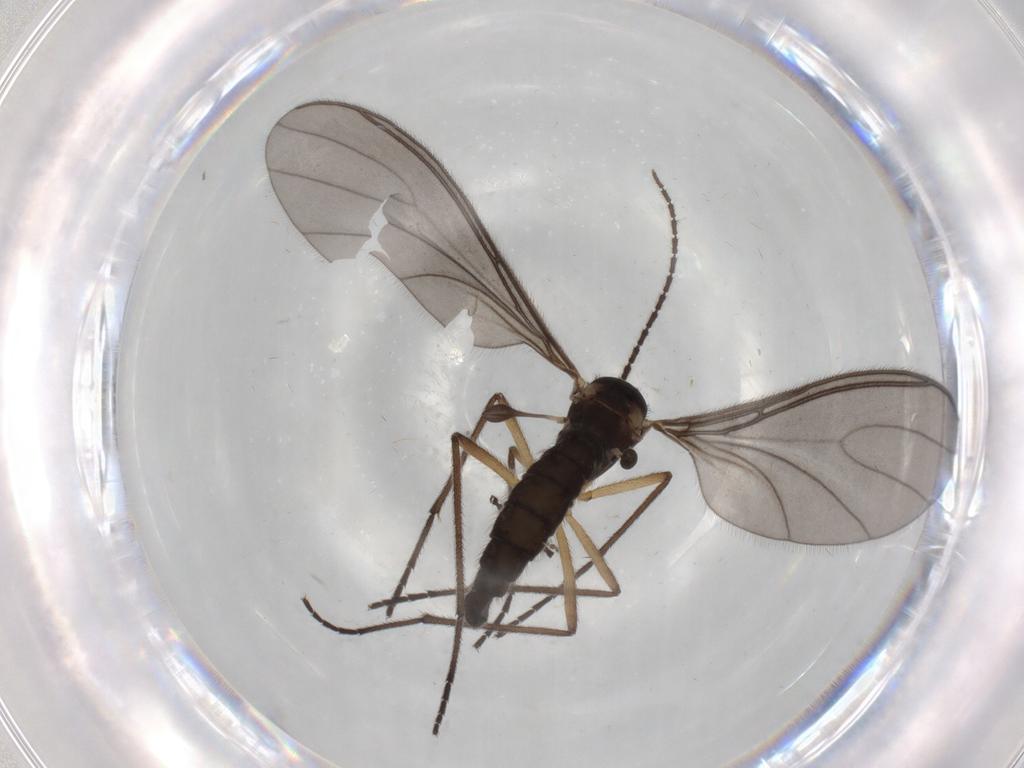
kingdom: Animalia
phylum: Arthropoda
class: Insecta
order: Diptera
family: Sciaridae
